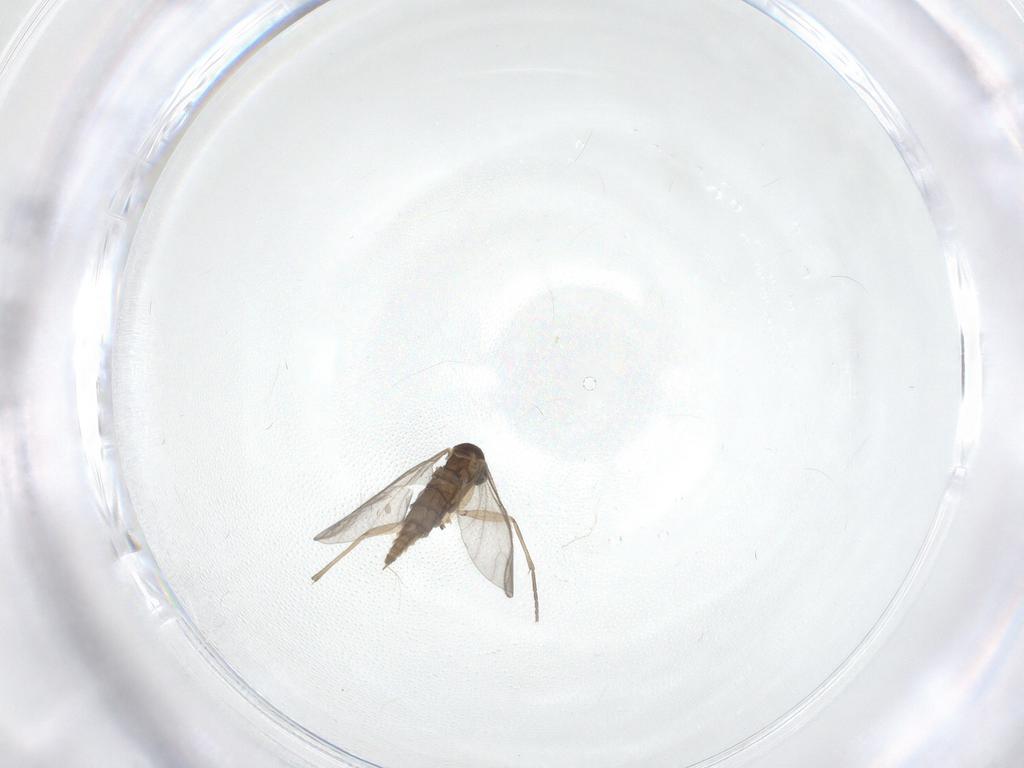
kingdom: Animalia
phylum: Arthropoda
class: Insecta
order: Diptera
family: Sciaridae
